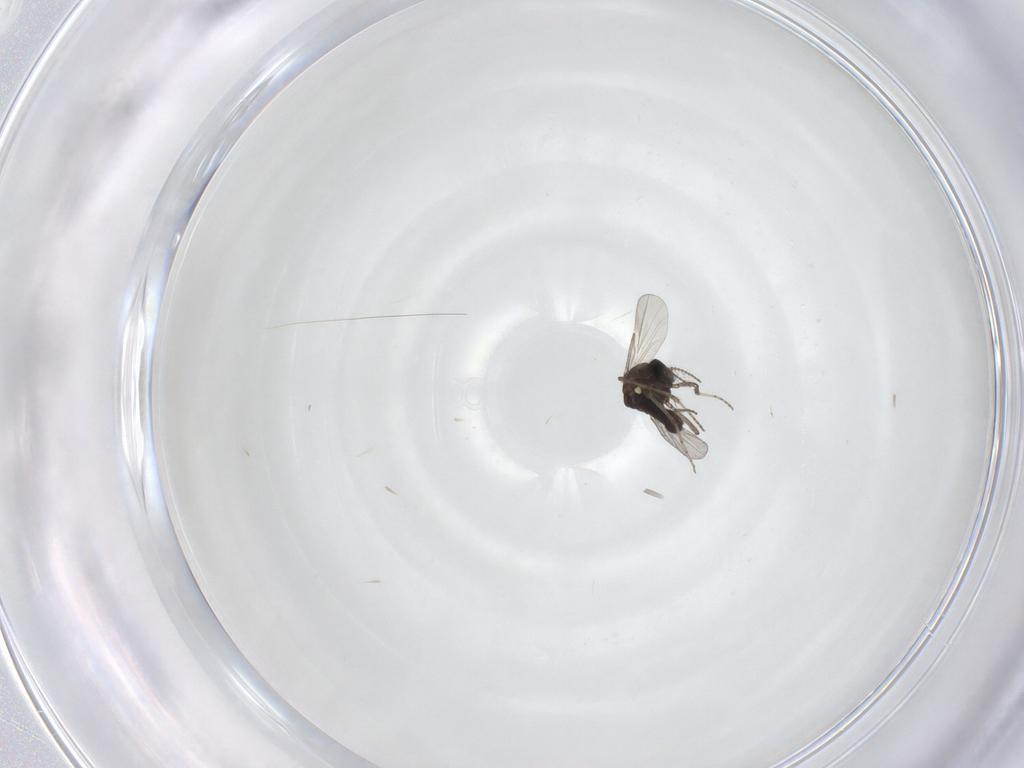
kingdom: Animalia
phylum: Arthropoda
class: Insecta
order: Diptera
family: Ceratopogonidae
